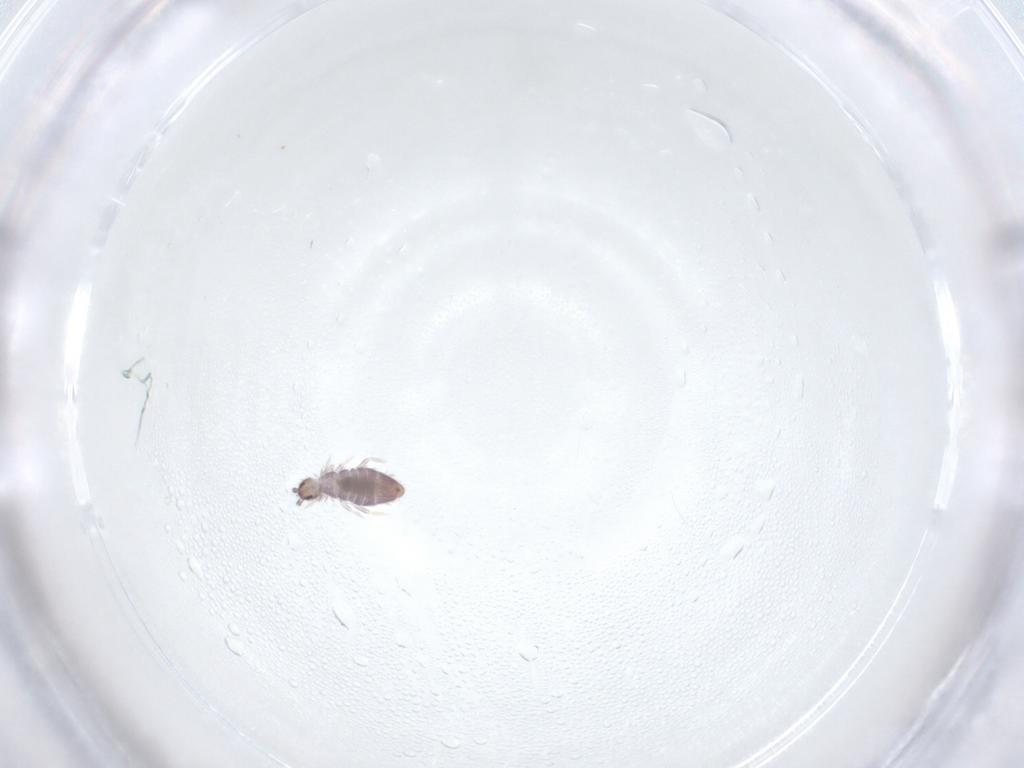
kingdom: Animalia
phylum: Arthropoda
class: Collembola
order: Entomobryomorpha
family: Entomobryidae
